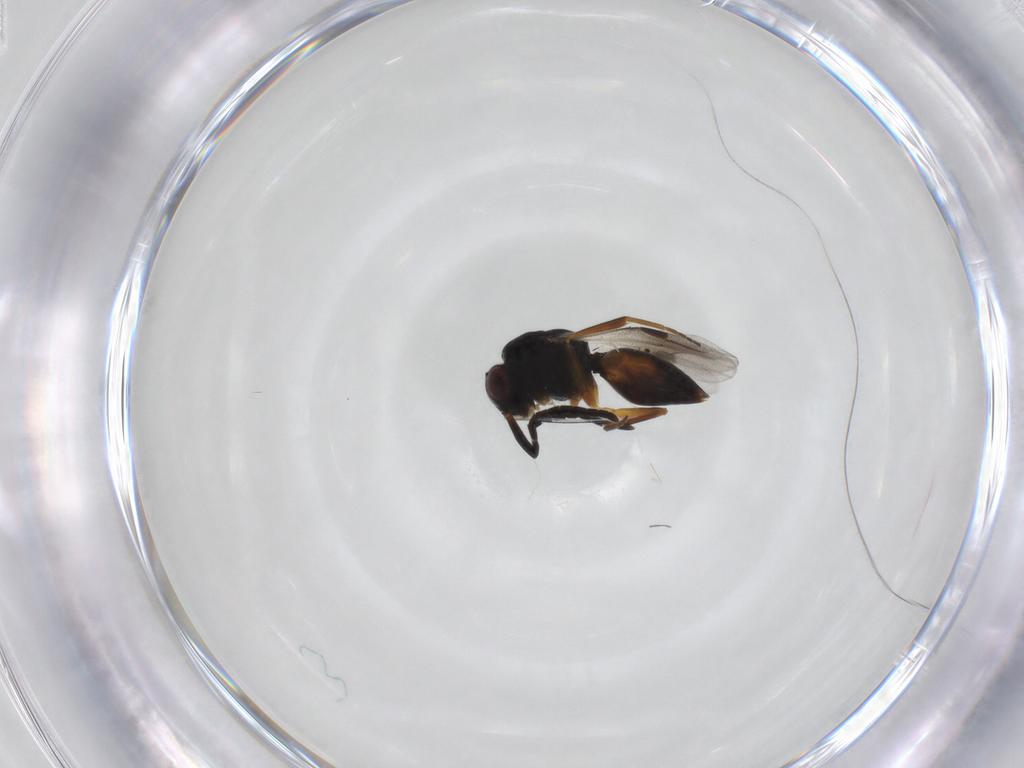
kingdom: Animalia
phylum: Arthropoda
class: Insecta
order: Hymenoptera
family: Megaspilidae
